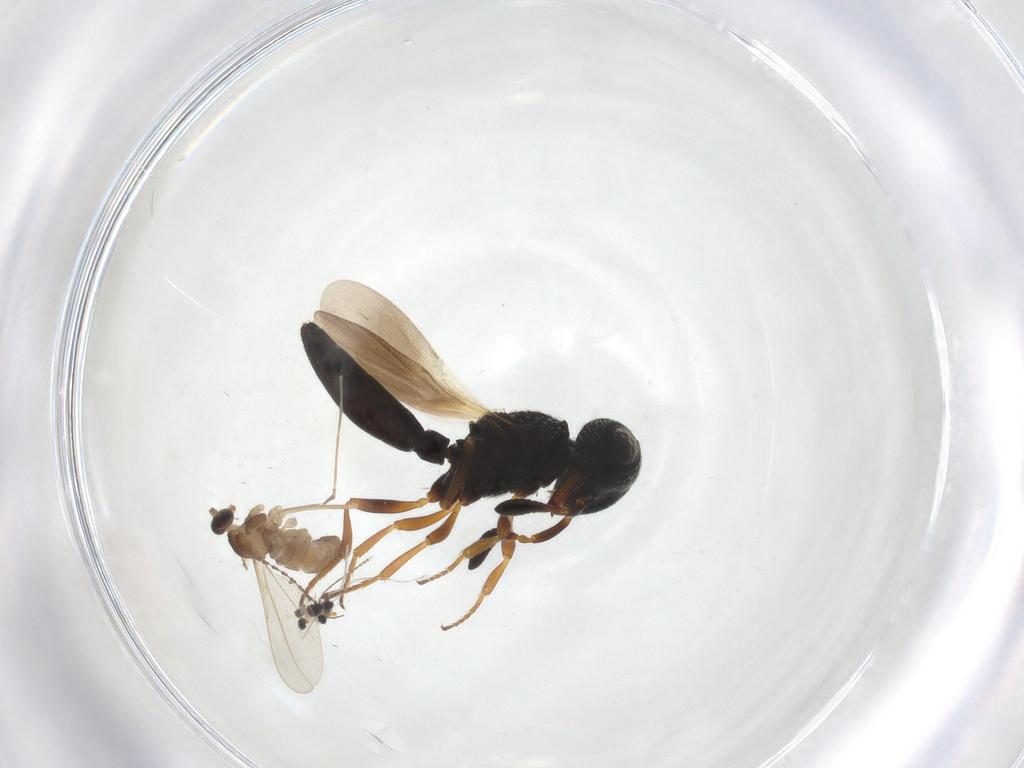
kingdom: Animalia
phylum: Arthropoda
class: Insecta
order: Diptera
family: Cecidomyiidae
